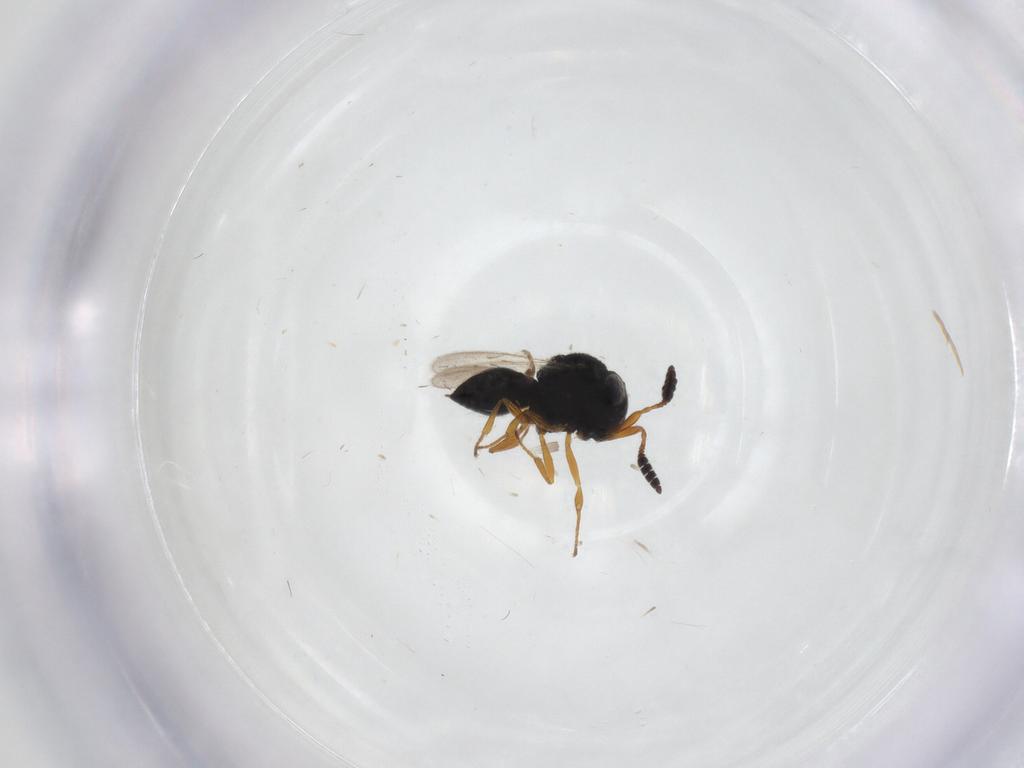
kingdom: Animalia
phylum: Arthropoda
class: Insecta
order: Hymenoptera
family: Scelionidae
